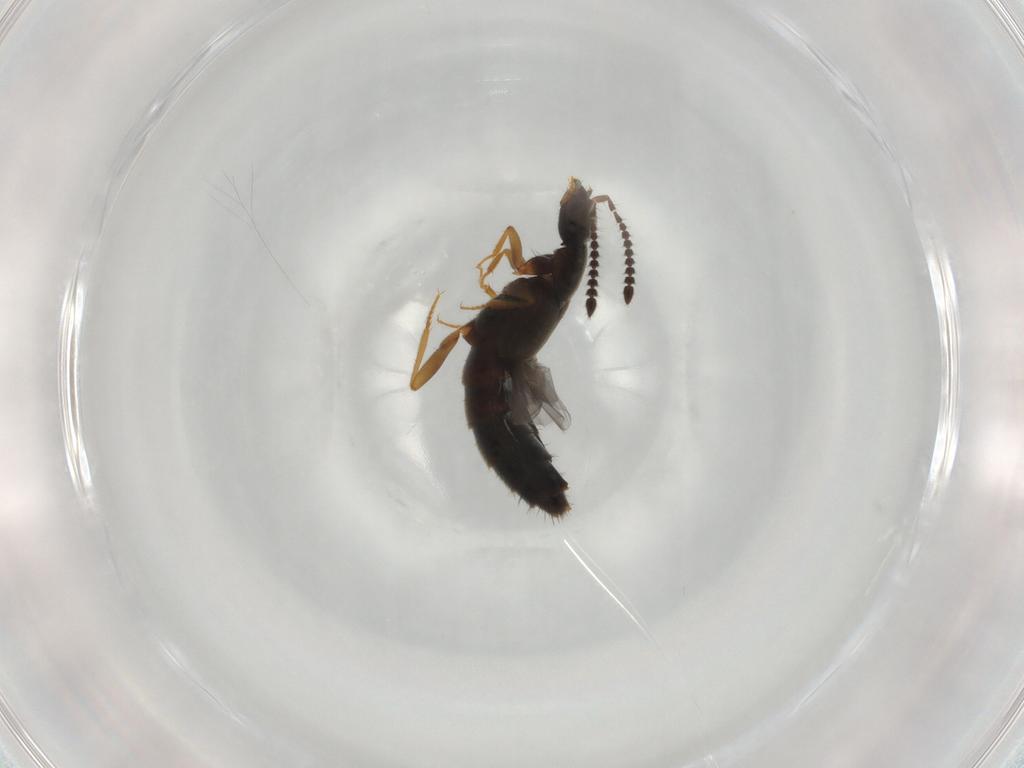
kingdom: Animalia
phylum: Arthropoda
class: Insecta
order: Coleoptera
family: Staphylinidae
